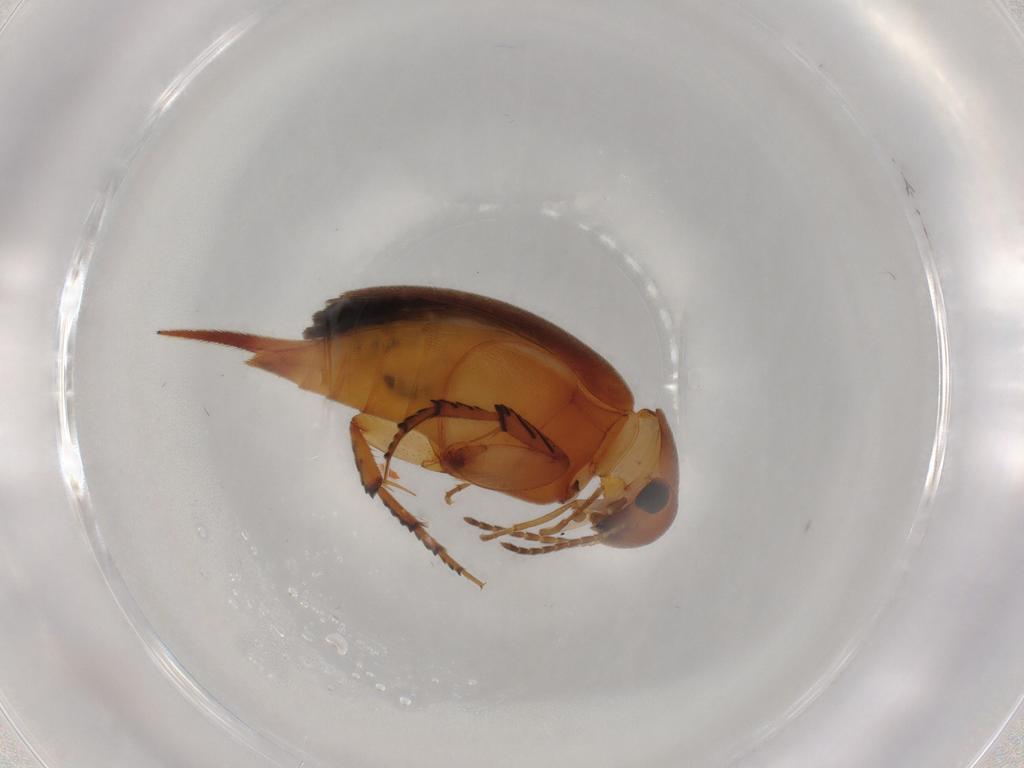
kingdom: Animalia
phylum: Arthropoda
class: Insecta
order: Coleoptera
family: Mordellidae
